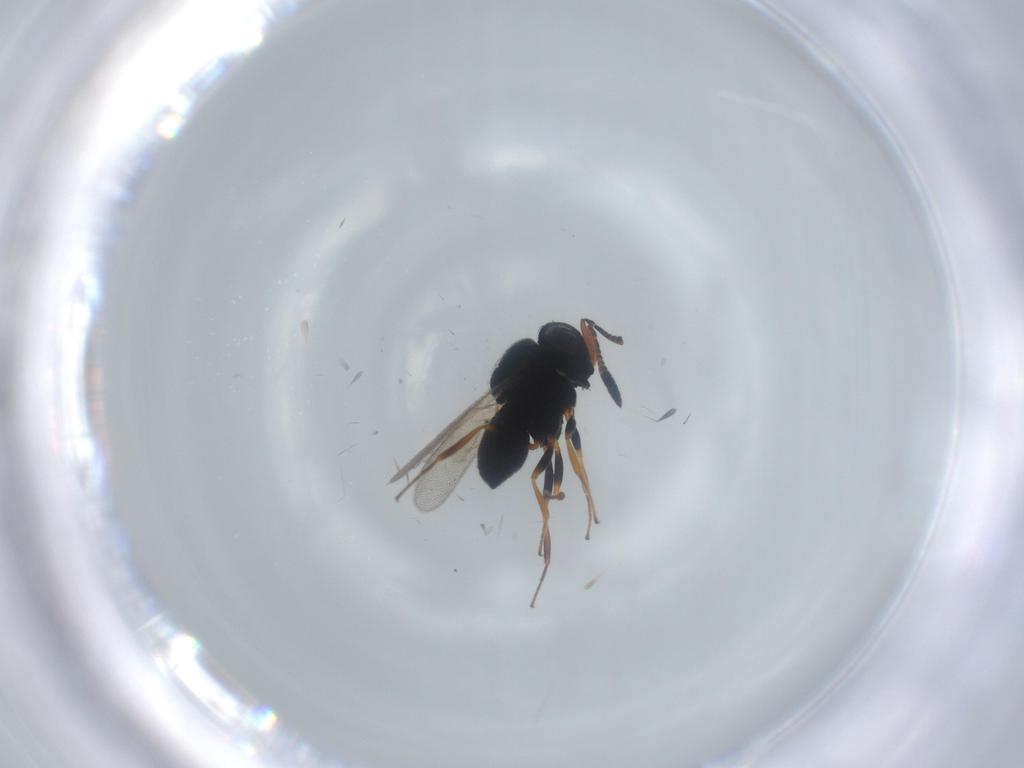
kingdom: Animalia
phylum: Arthropoda
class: Insecta
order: Hymenoptera
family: Scelionidae
